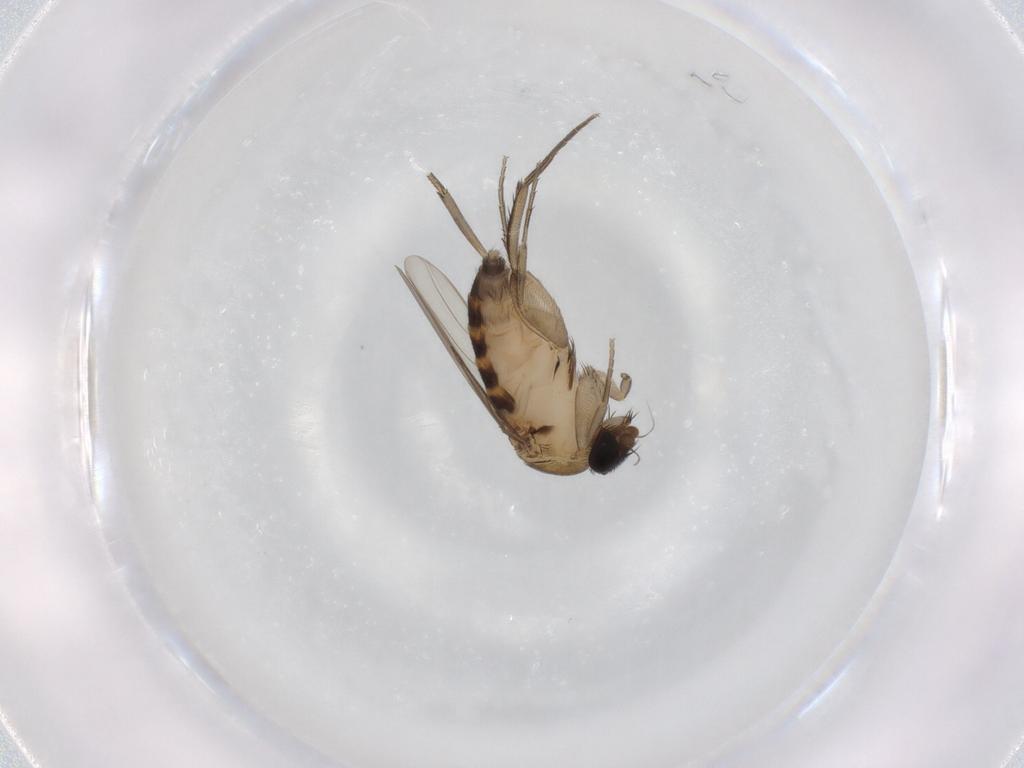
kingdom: Animalia
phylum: Arthropoda
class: Insecta
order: Diptera
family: Phoridae
